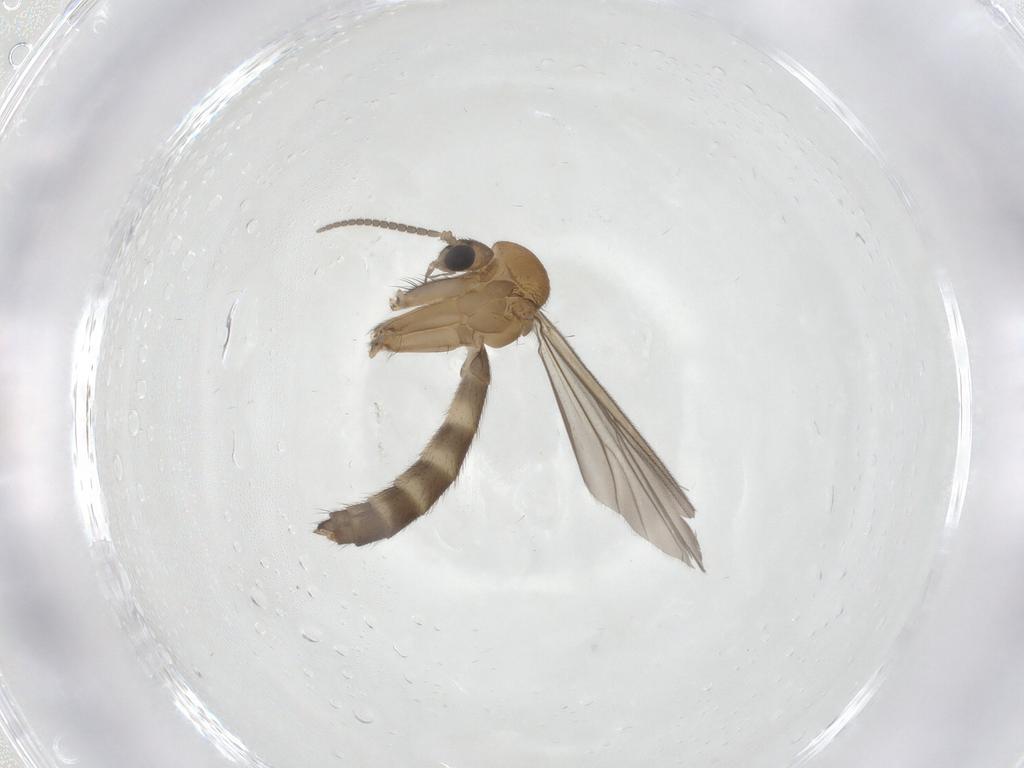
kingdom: Animalia
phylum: Arthropoda
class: Insecta
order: Diptera
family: Mycetophilidae
